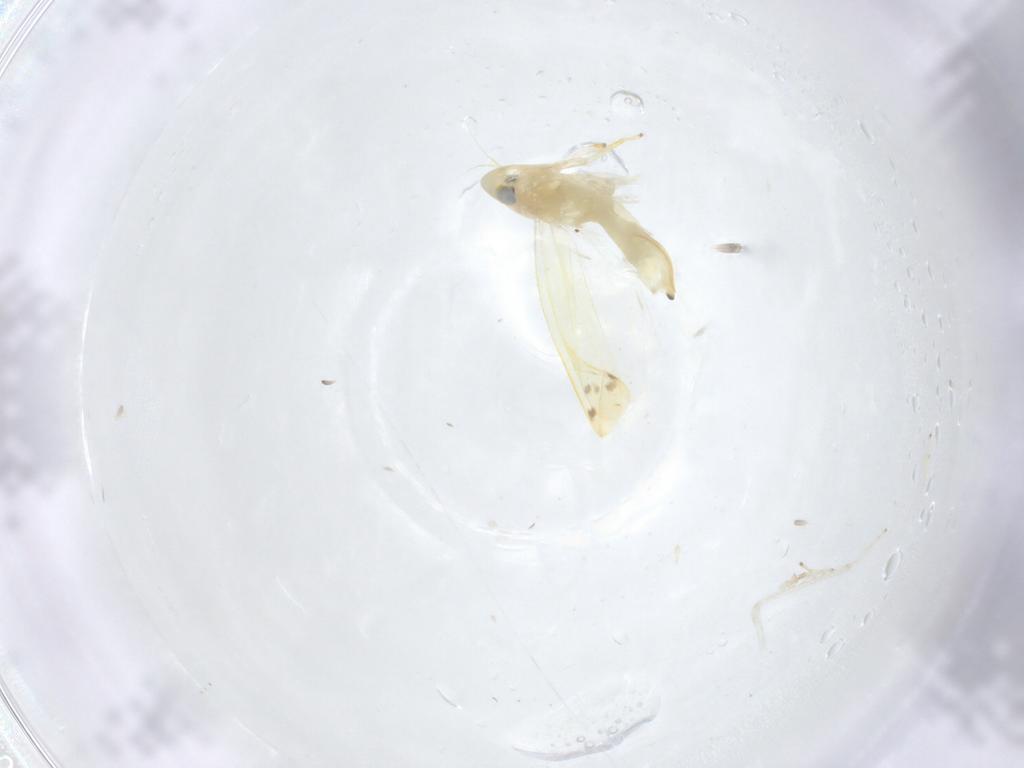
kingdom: Animalia
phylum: Arthropoda
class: Insecta
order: Hemiptera
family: Cicadellidae
